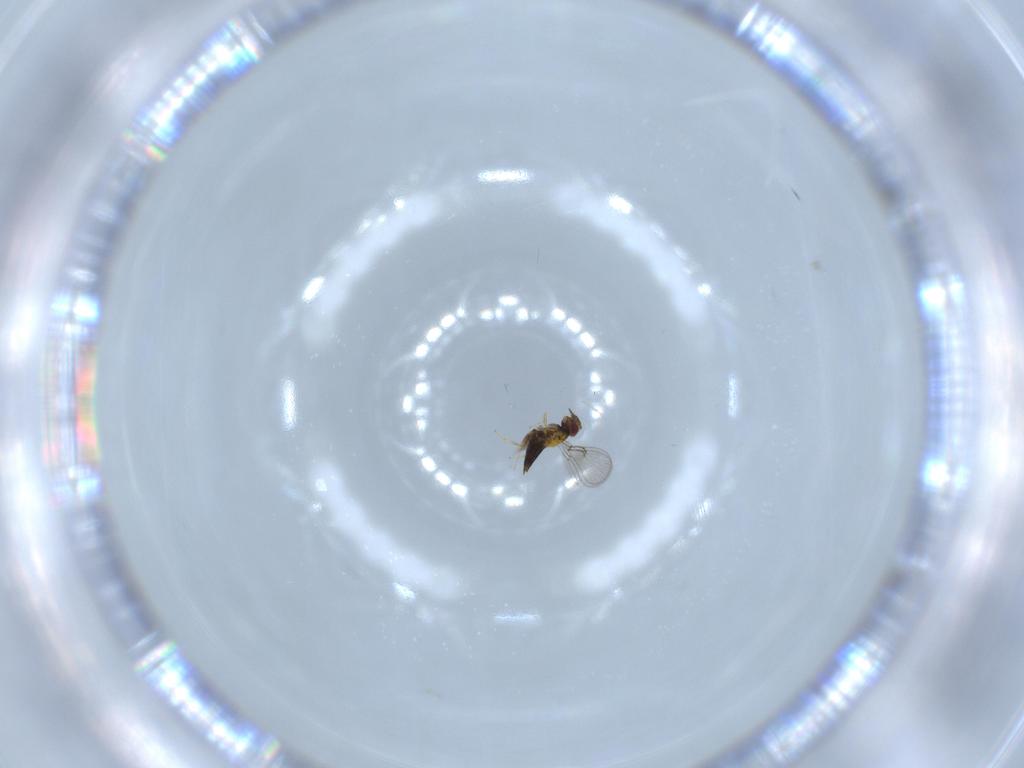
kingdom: Animalia
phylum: Arthropoda
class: Insecta
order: Hymenoptera
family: Trichogrammatidae
